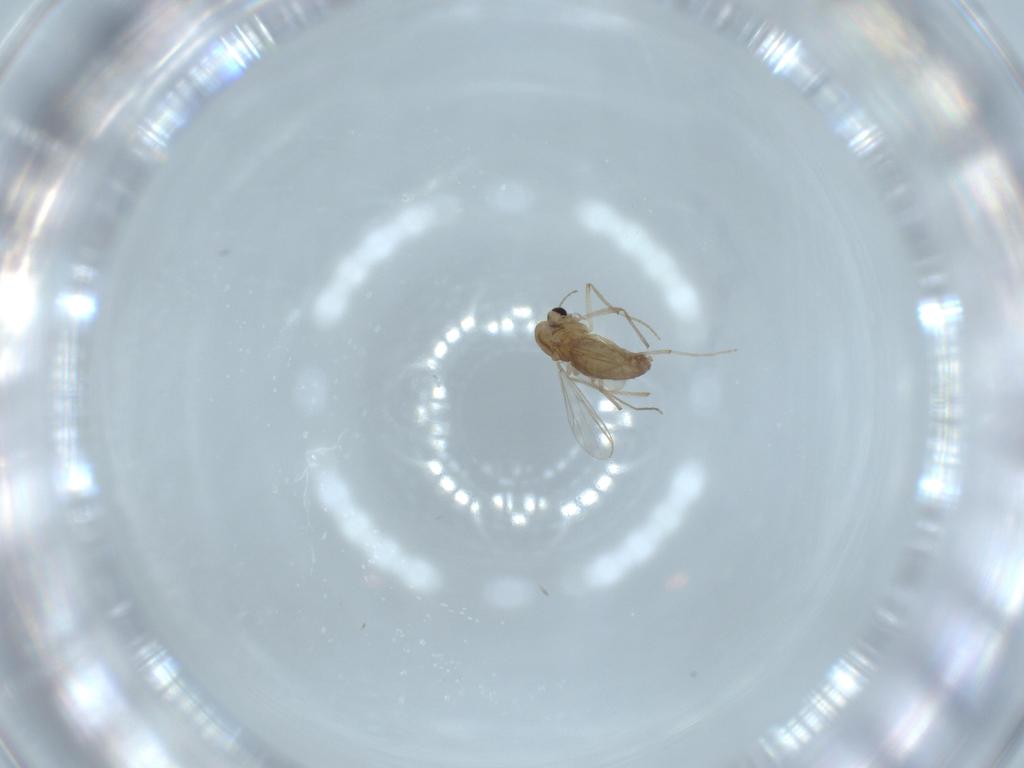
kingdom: Animalia
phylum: Arthropoda
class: Insecta
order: Diptera
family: Chironomidae
